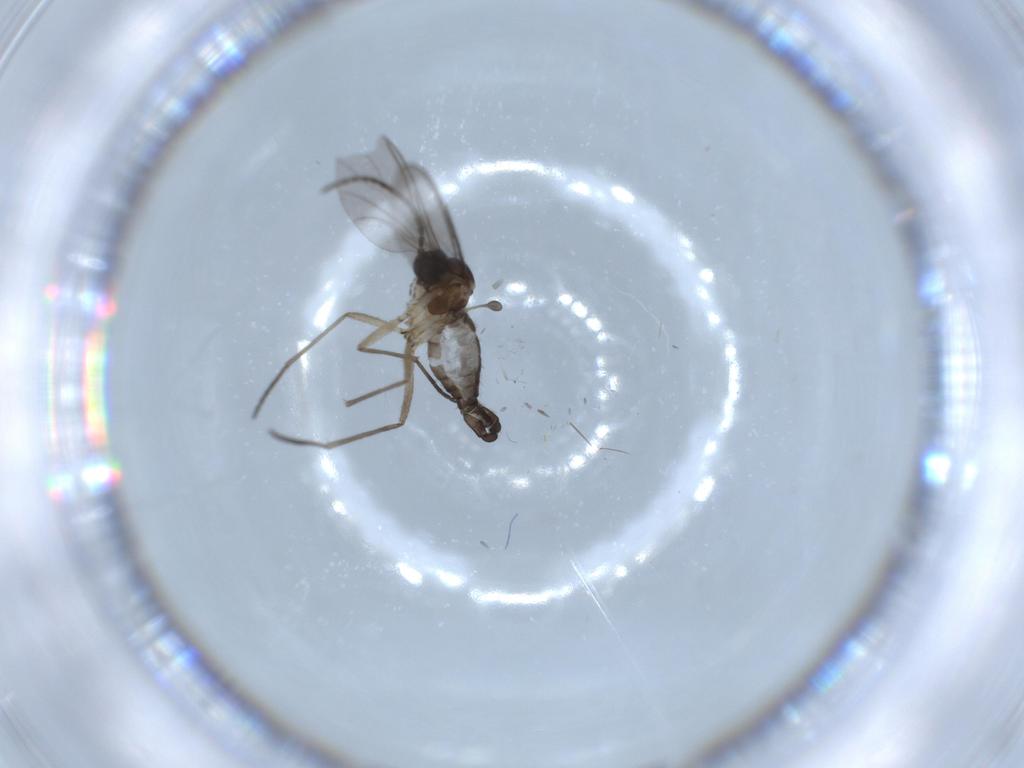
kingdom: Animalia
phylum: Arthropoda
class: Insecta
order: Diptera
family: Sciaridae
